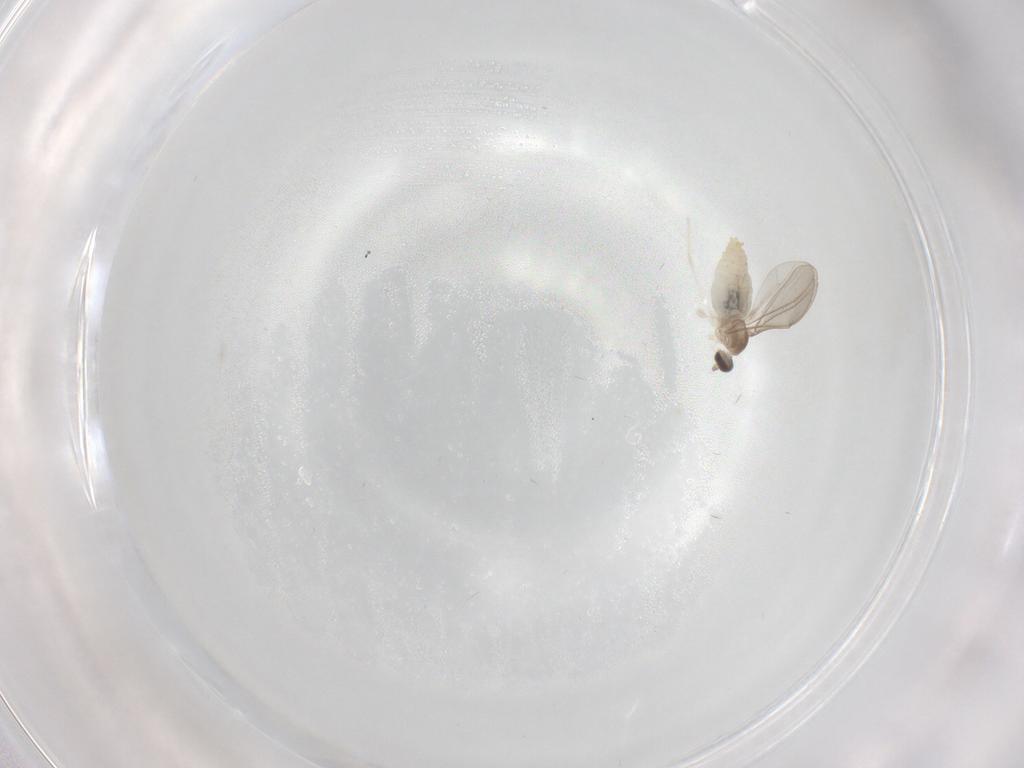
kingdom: Animalia
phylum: Arthropoda
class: Insecta
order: Diptera
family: Cecidomyiidae
